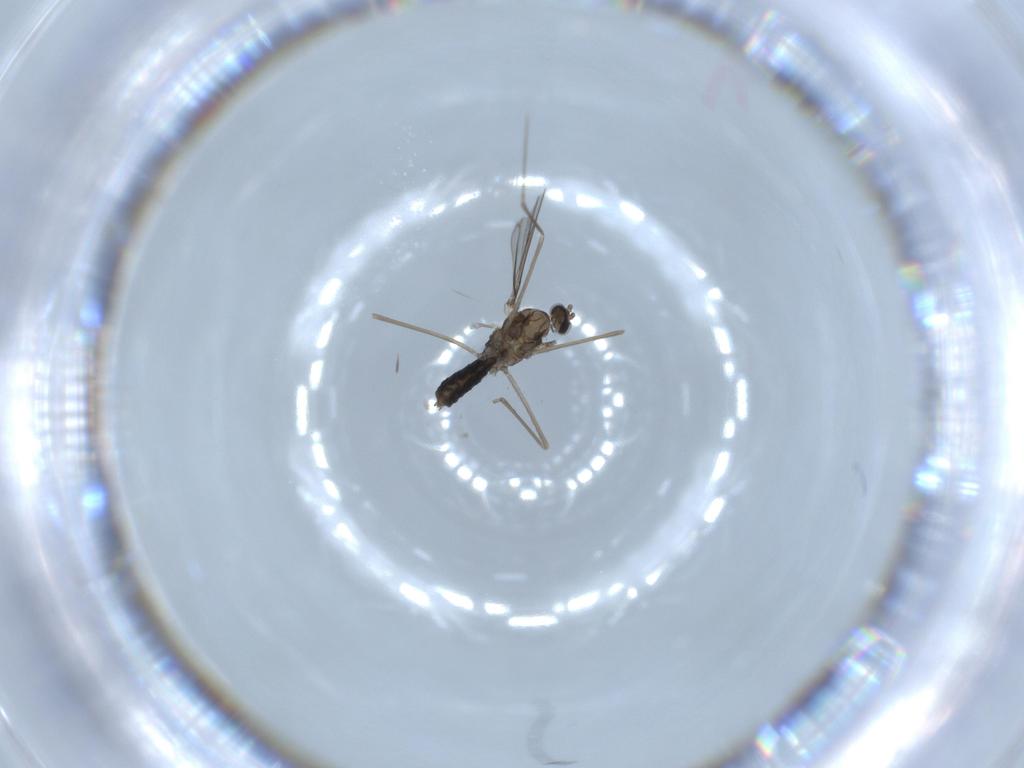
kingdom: Animalia
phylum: Arthropoda
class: Insecta
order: Diptera
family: Cecidomyiidae
